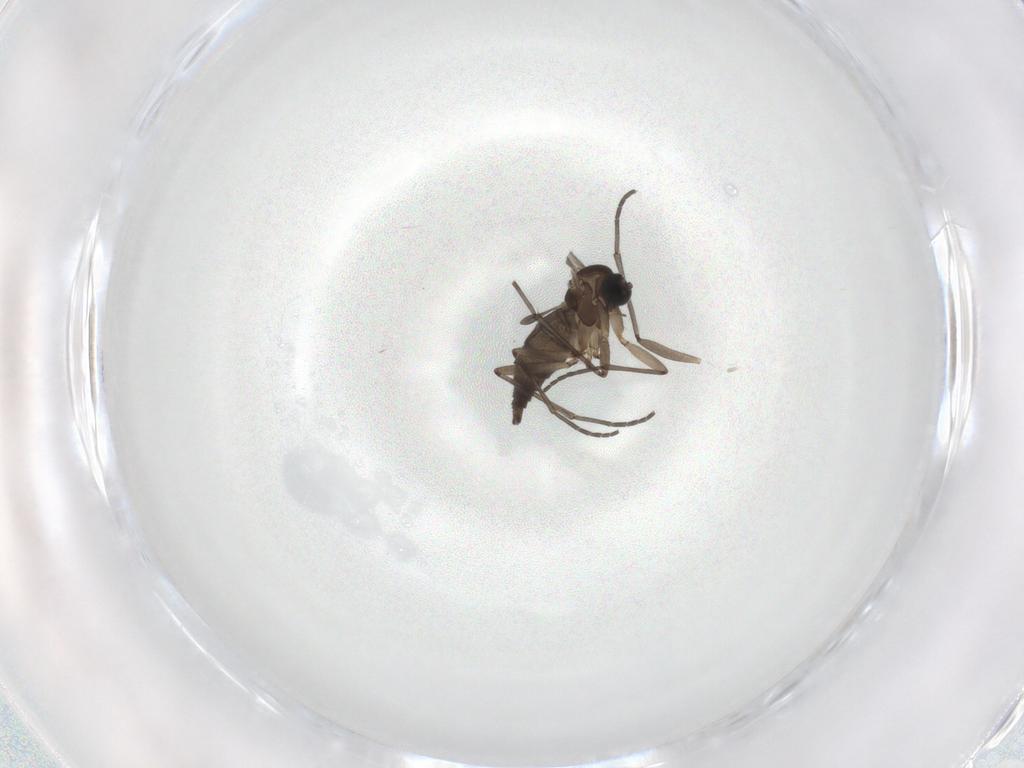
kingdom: Animalia
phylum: Arthropoda
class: Insecta
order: Diptera
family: Sciaridae
